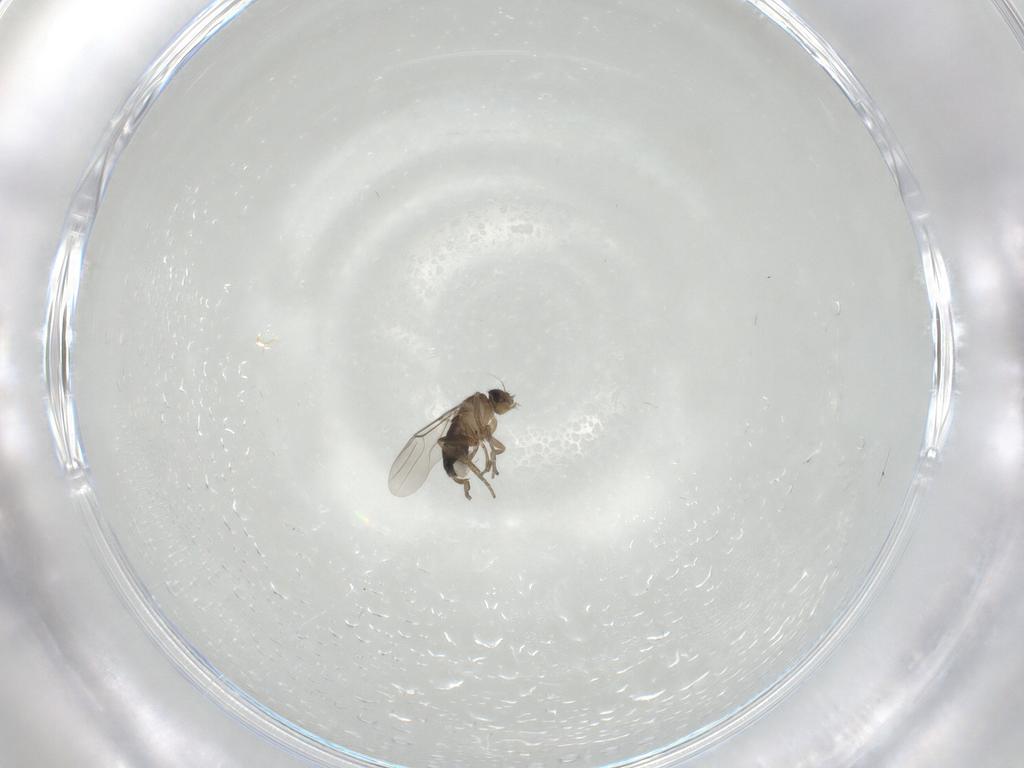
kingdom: Animalia
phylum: Arthropoda
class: Insecta
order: Diptera
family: Phoridae
